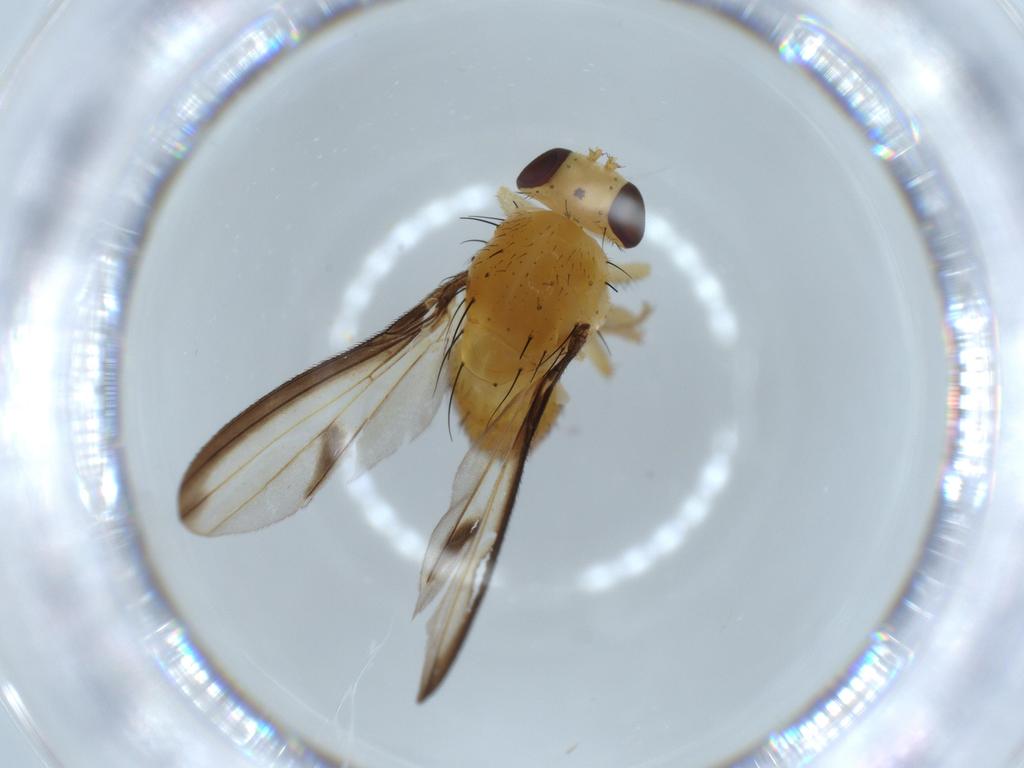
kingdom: Animalia
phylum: Arthropoda
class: Insecta
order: Diptera
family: Lauxaniidae
